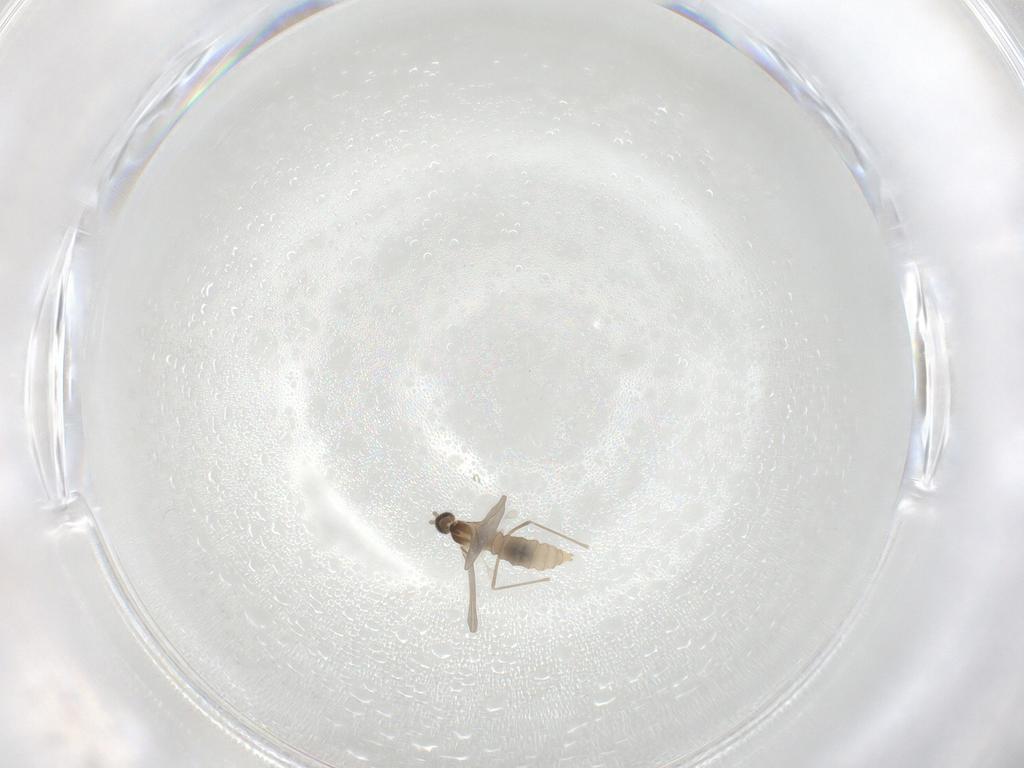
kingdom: Animalia
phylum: Arthropoda
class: Insecta
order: Diptera
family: Cecidomyiidae
